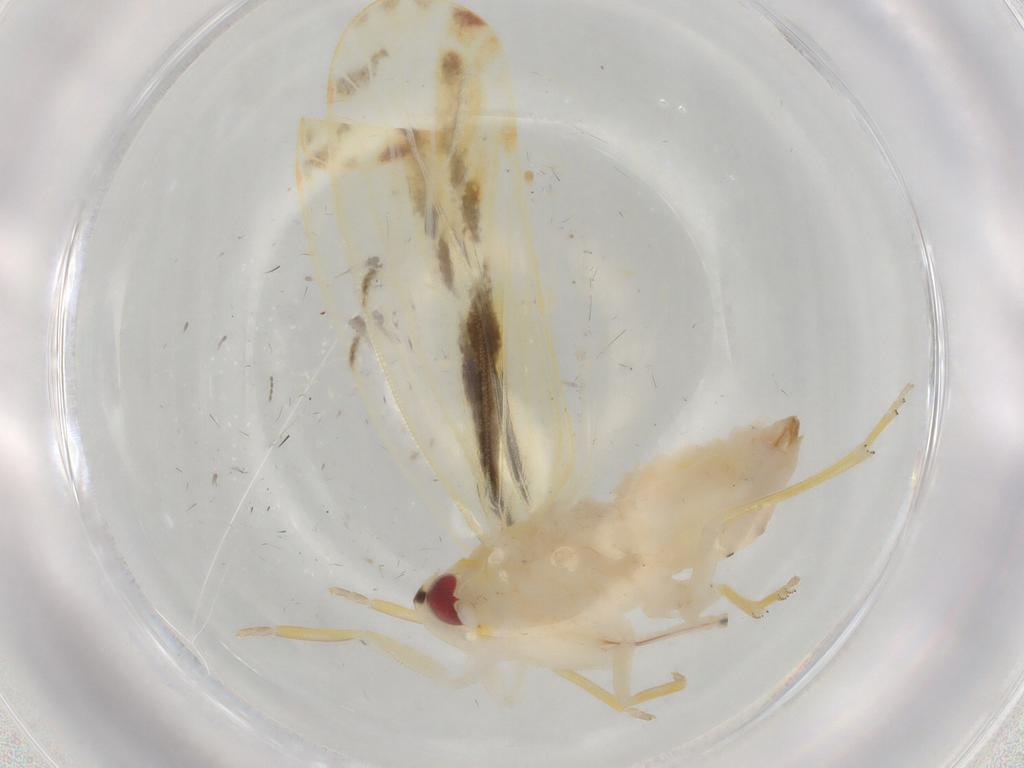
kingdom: Animalia
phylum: Arthropoda
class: Insecta
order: Hemiptera
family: Derbidae
